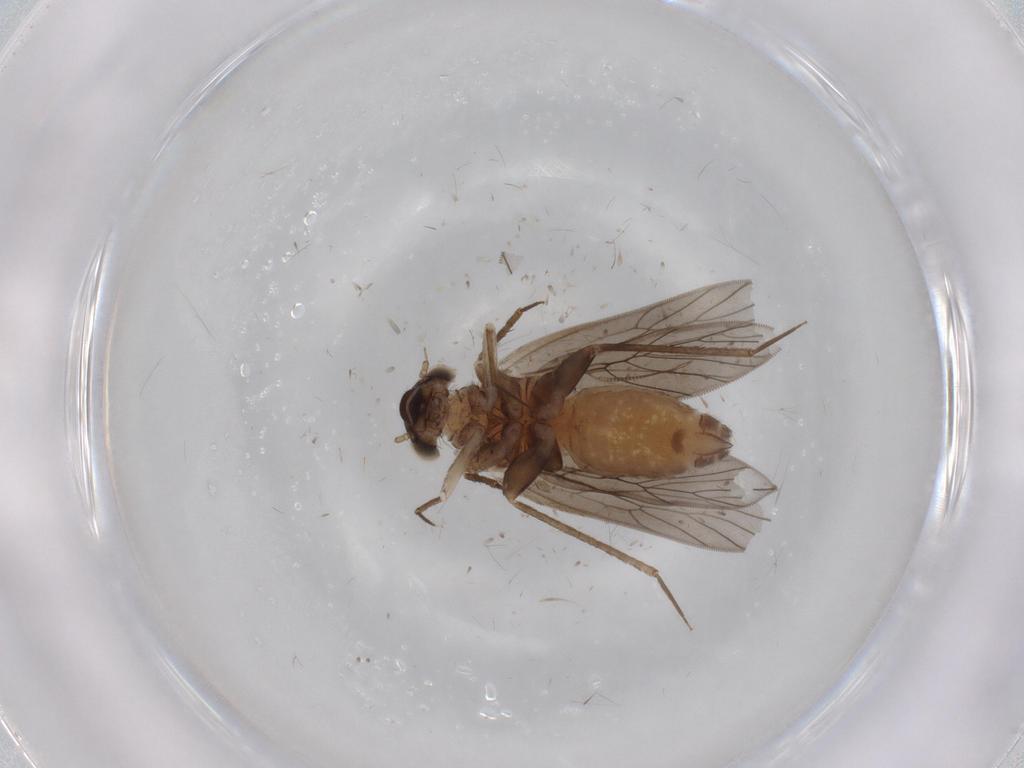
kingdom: Animalia
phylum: Arthropoda
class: Insecta
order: Psocodea
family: Lepidopsocidae
